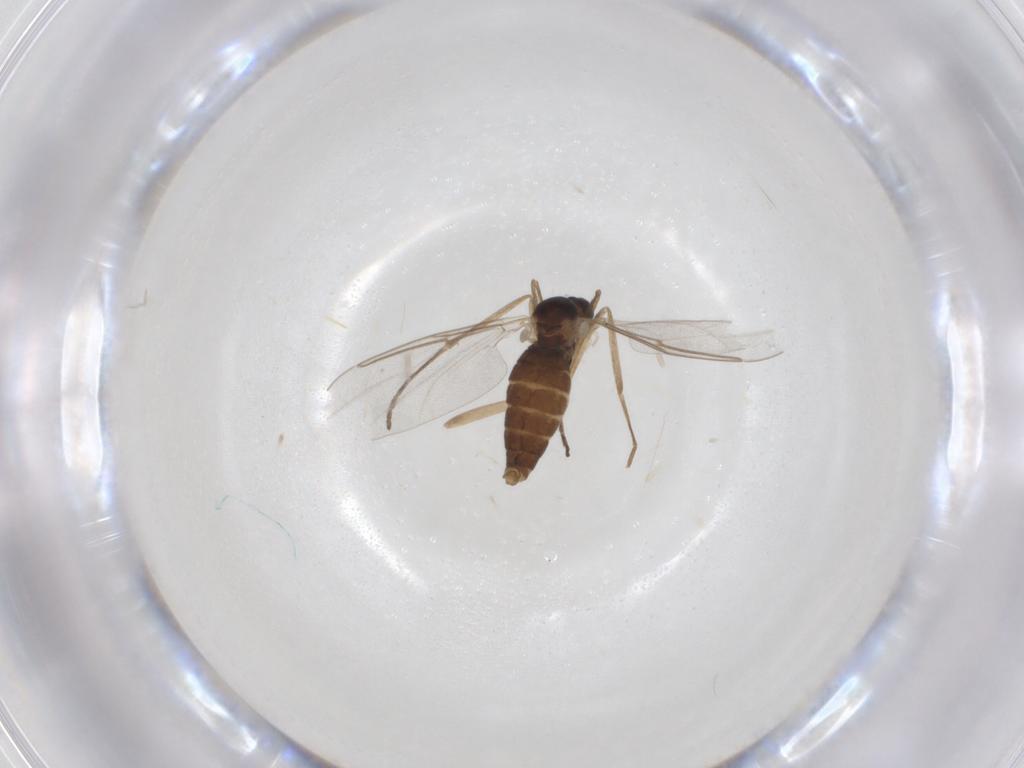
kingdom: Animalia
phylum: Arthropoda
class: Insecta
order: Diptera
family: Cecidomyiidae
